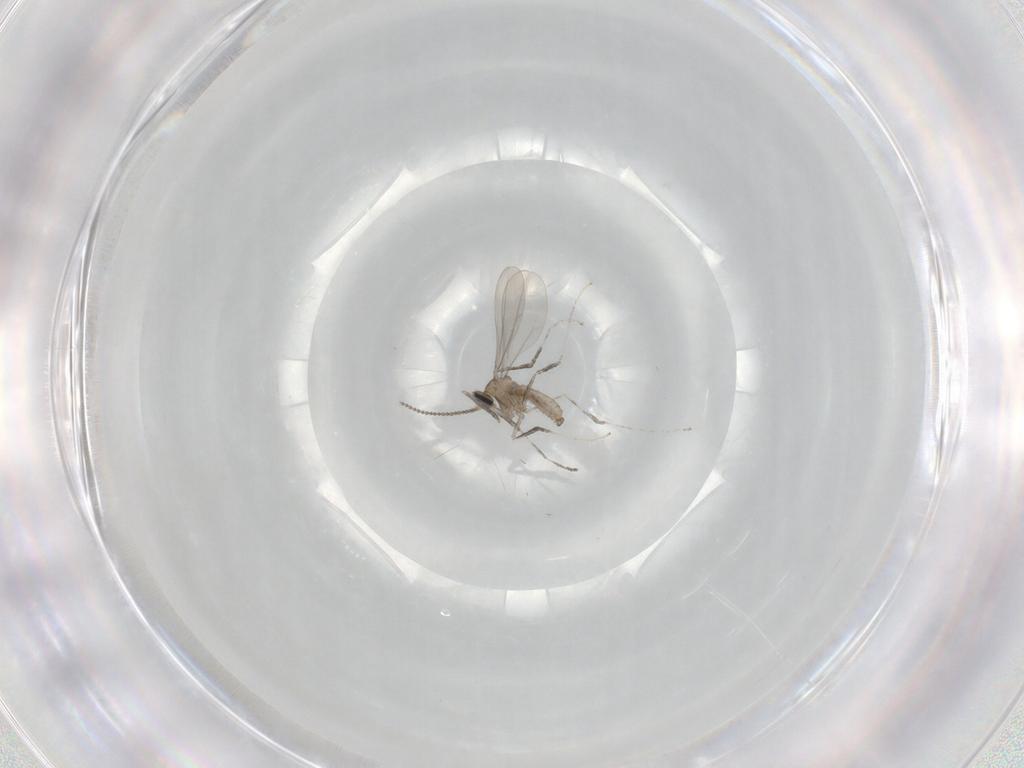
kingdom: Animalia
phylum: Arthropoda
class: Insecta
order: Diptera
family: Cecidomyiidae
